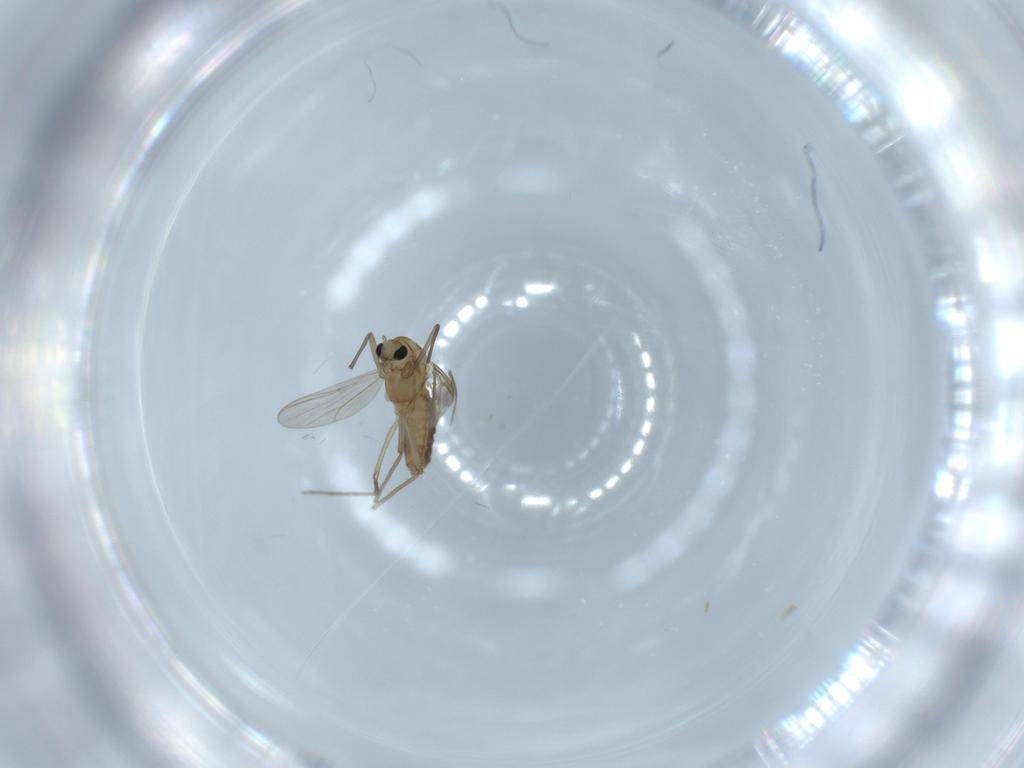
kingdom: Animalia
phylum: Arthropoda
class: Insecta
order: Diptera
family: Chironomidae
